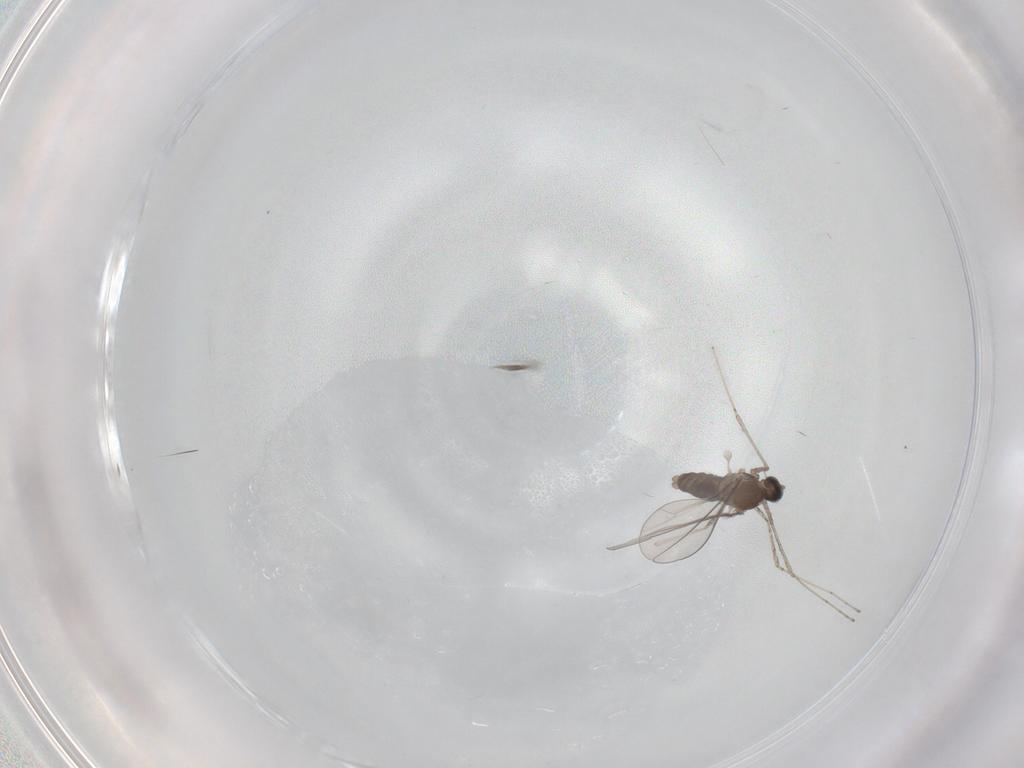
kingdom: Animalia
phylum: Arthropoda
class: Insecta
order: Diptera
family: Cecidomyiidae
